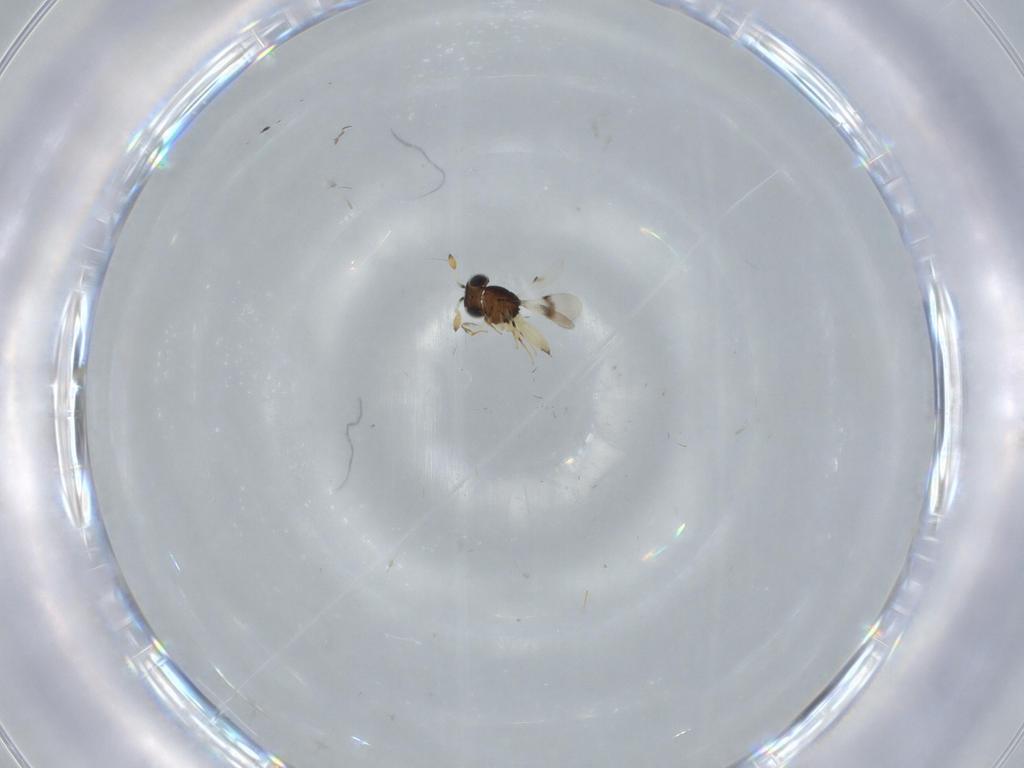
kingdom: Animalia
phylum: Arthropoda
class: Insecta
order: Hymenoptera
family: Scelionidae
